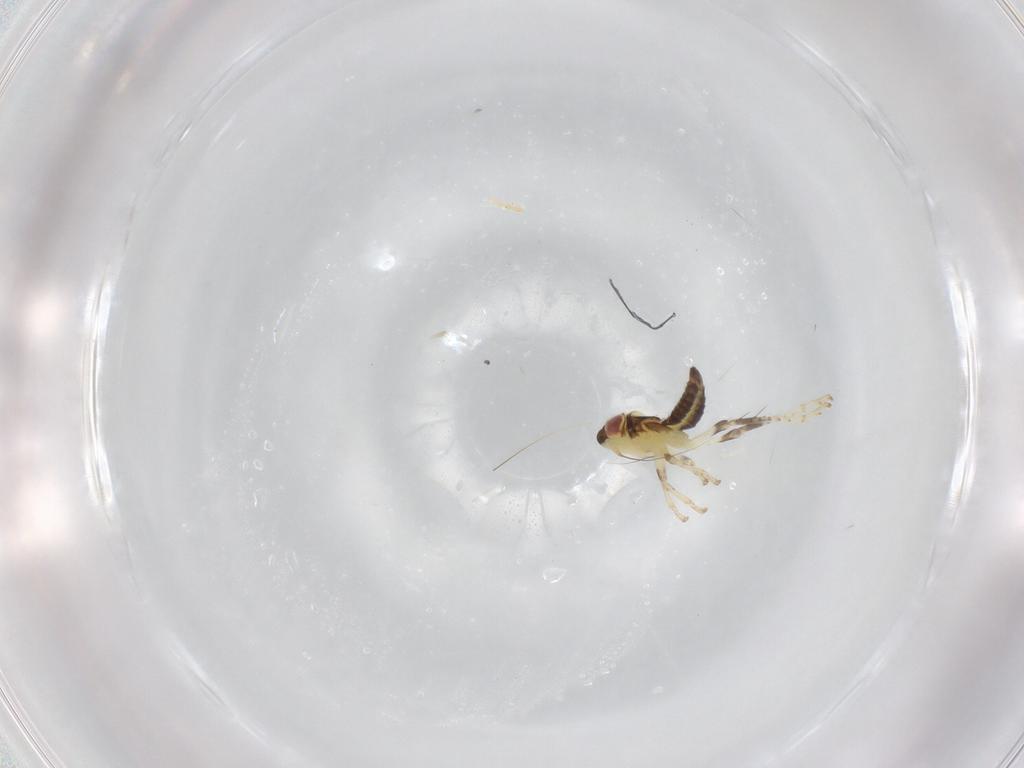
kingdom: Animalia
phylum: Arthropoda
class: Insecta
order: Hemiptera
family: Cicadellidae
